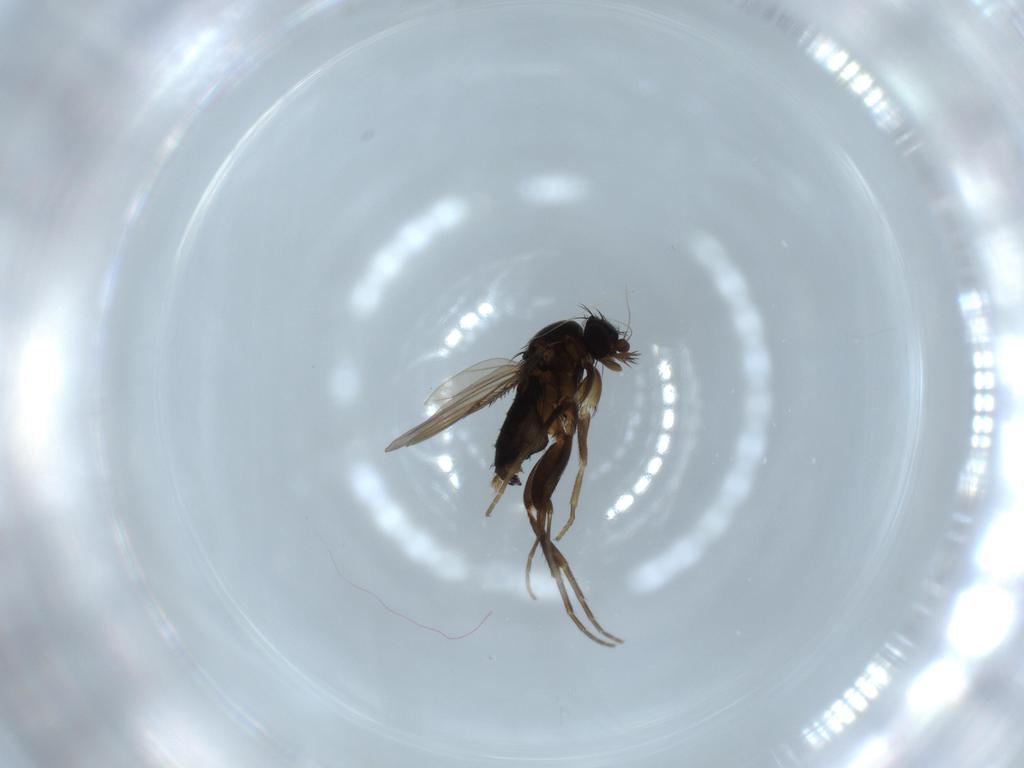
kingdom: Animalia
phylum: Arthropoda
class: Insecta
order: Diptera
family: Phoridae
